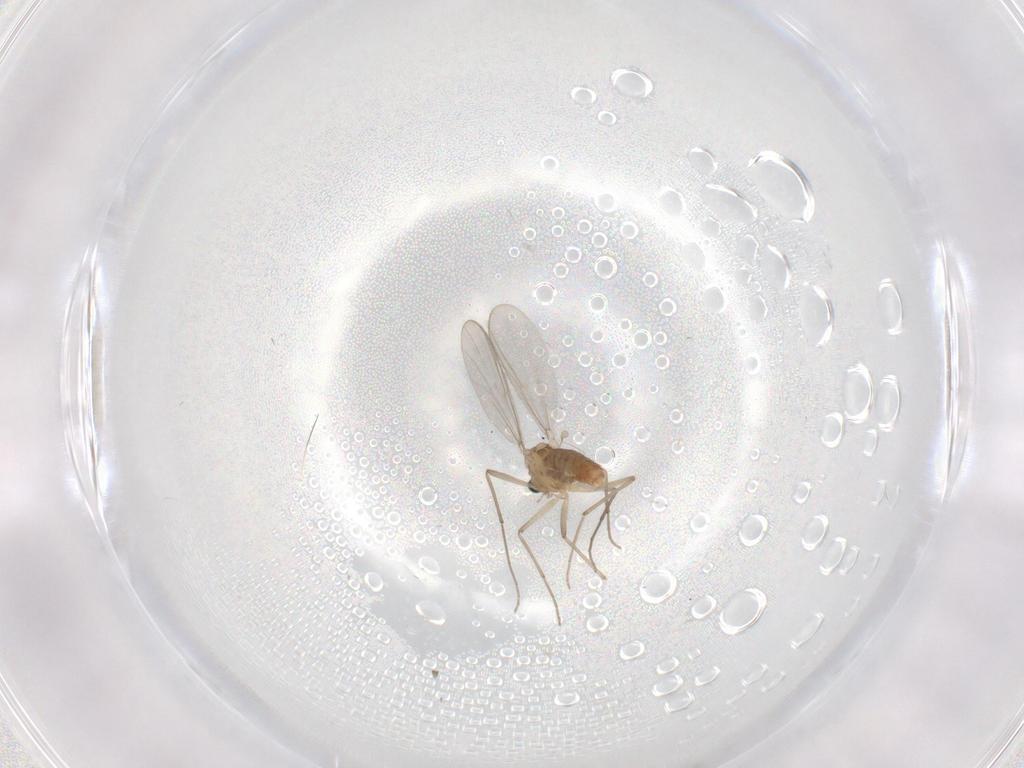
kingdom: Animalia
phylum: Arthropoda
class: Insecta
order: Diptera
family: Chironomidae
